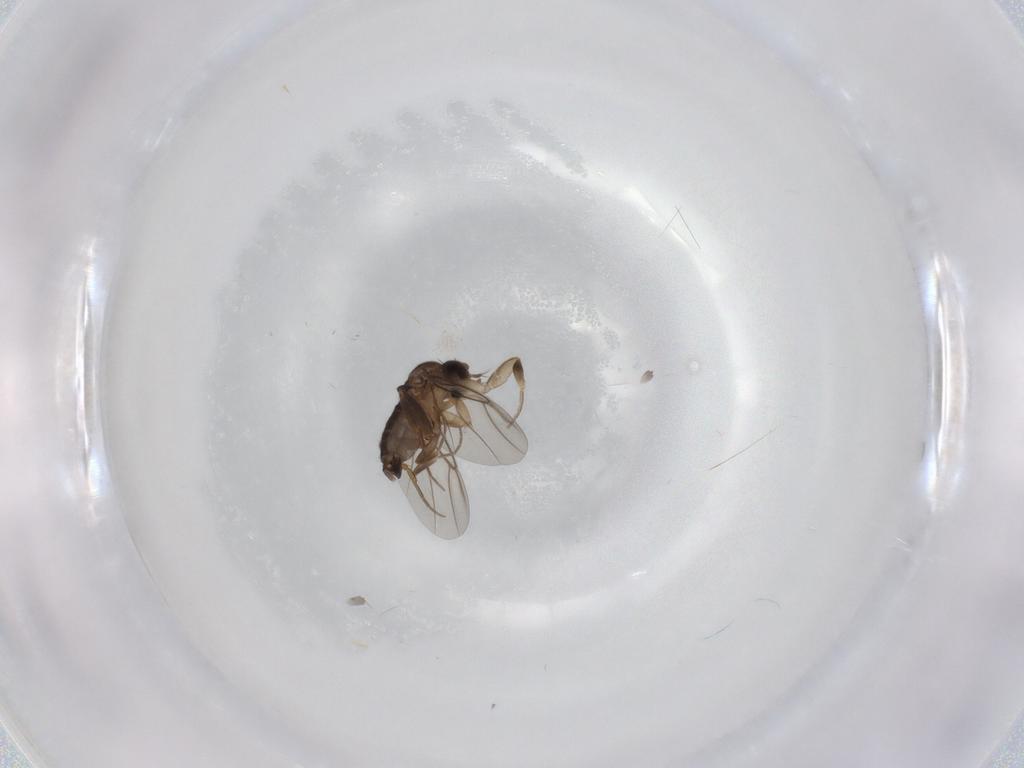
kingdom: Animalia
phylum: Arthropoda
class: Insecta
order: Diptera
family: Phoridae
